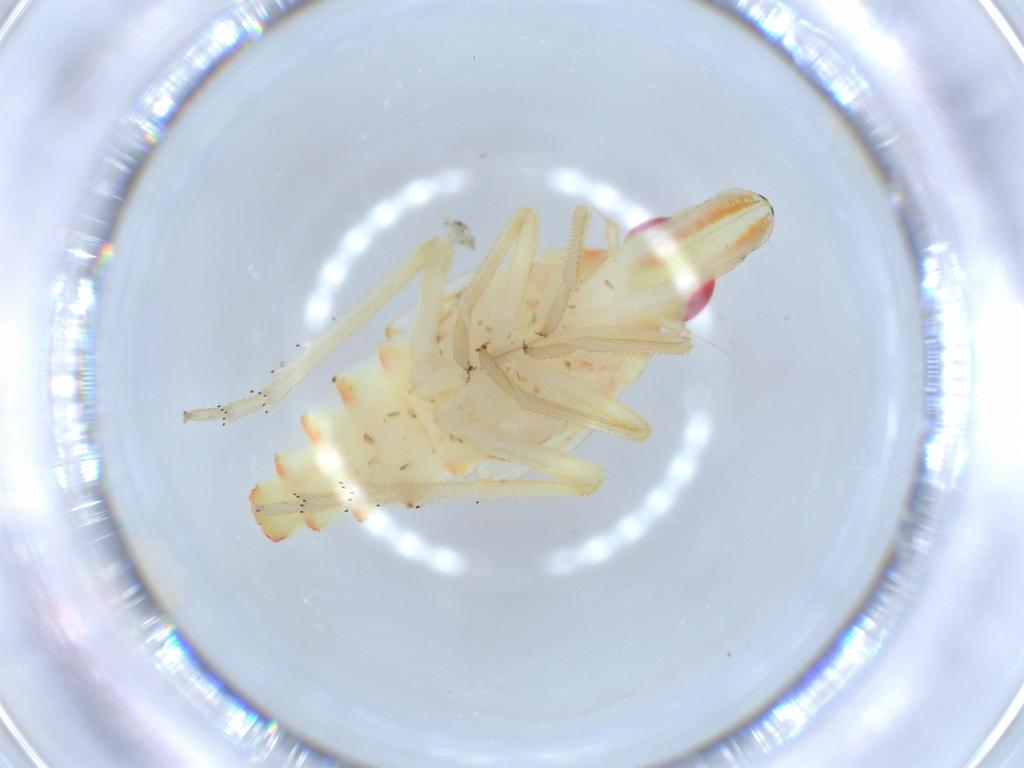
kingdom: Animalia
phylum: Arthropoda
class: Insecta
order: Hemiptera
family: Tropiduchidae
